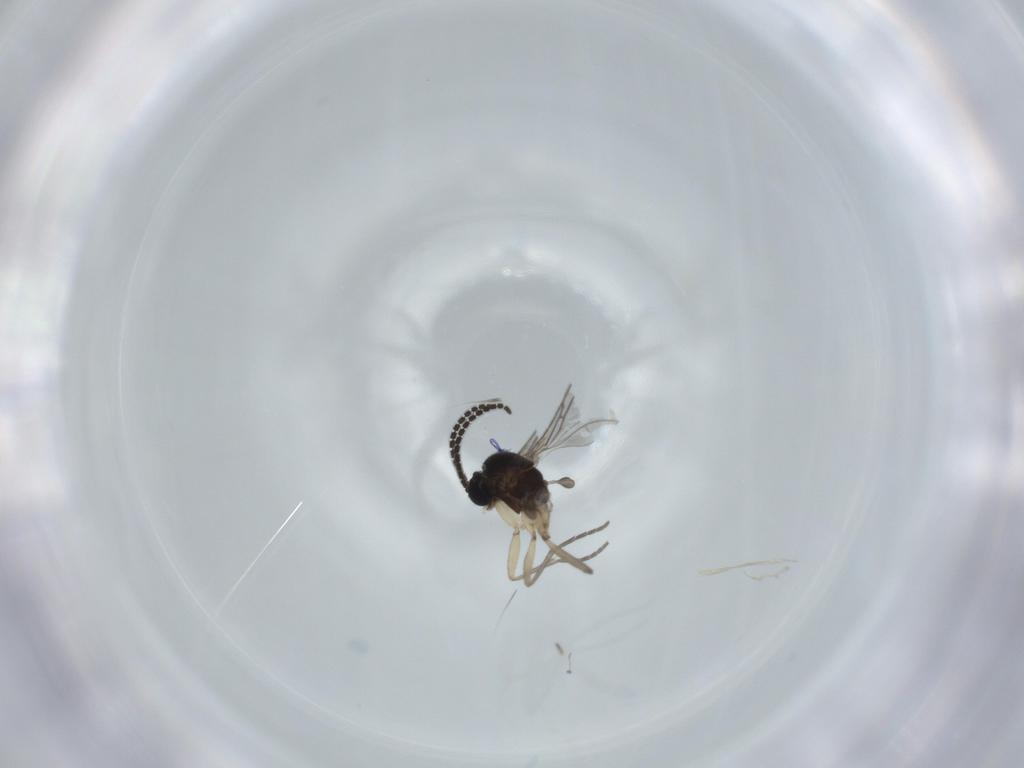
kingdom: Animalia
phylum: Arthropoda
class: Insecta
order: Diptera
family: Sciaridae
